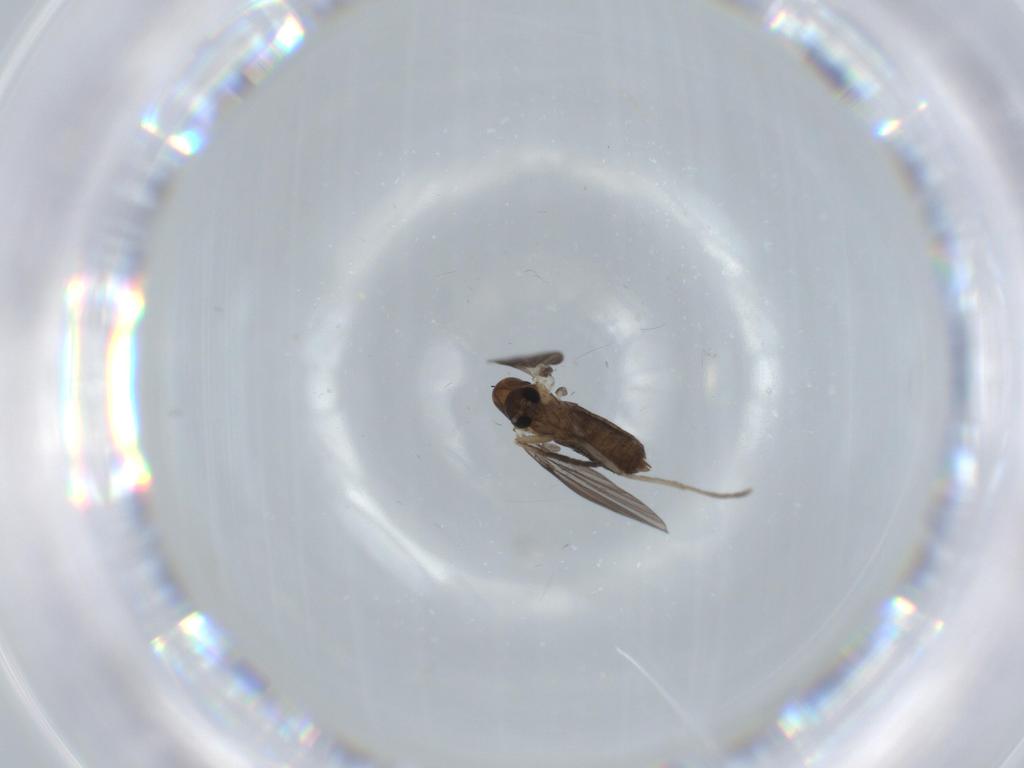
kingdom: Animalia
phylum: Arthropoda
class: Insecta
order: Diptera
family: Psychodidae
